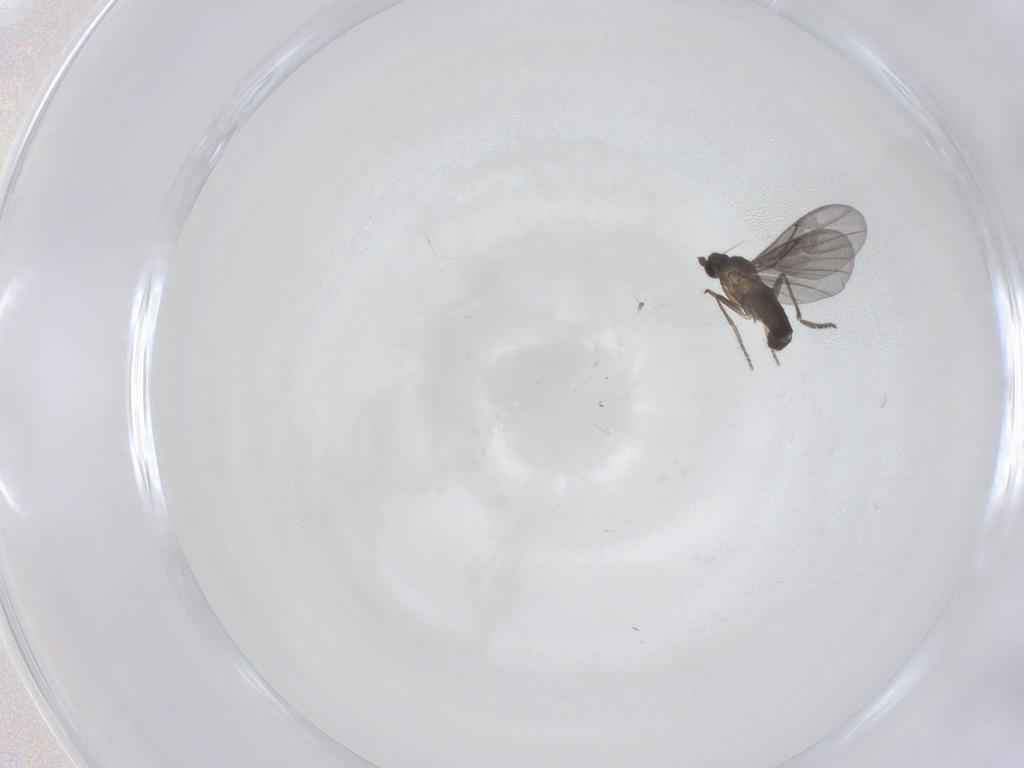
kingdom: Animalia
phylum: Arthropoda
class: Insecta
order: Diptera
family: Phoridae
